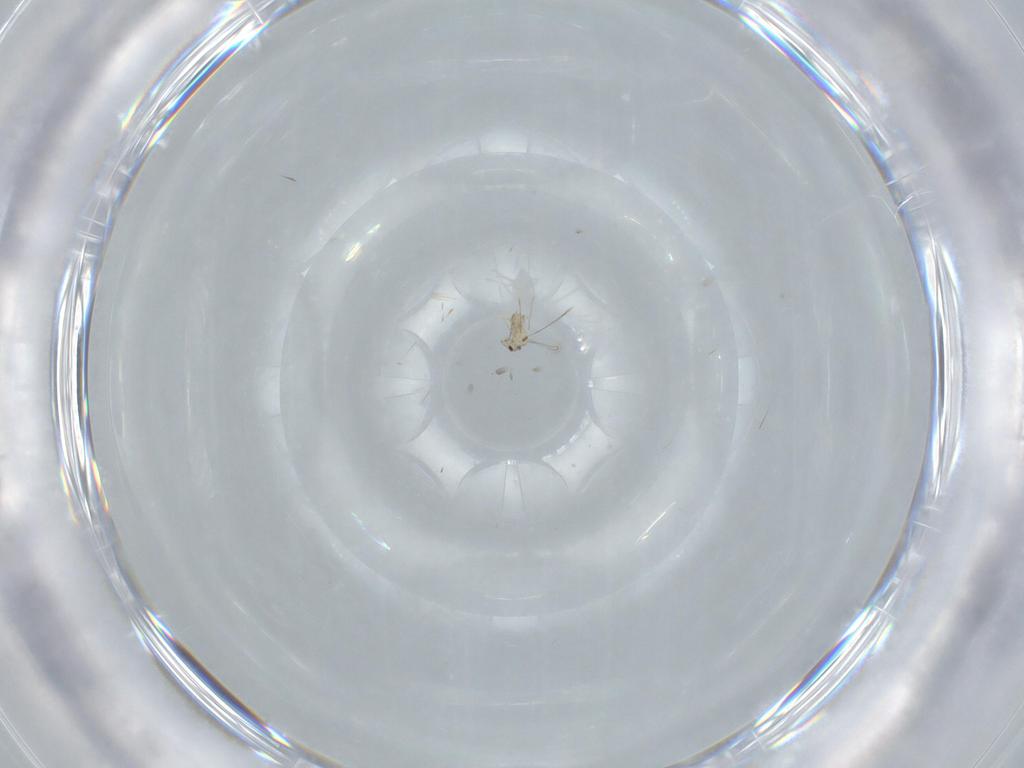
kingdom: Animalia
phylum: Arthropoda
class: Insecta
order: Hymenoptera
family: Mymaridae
